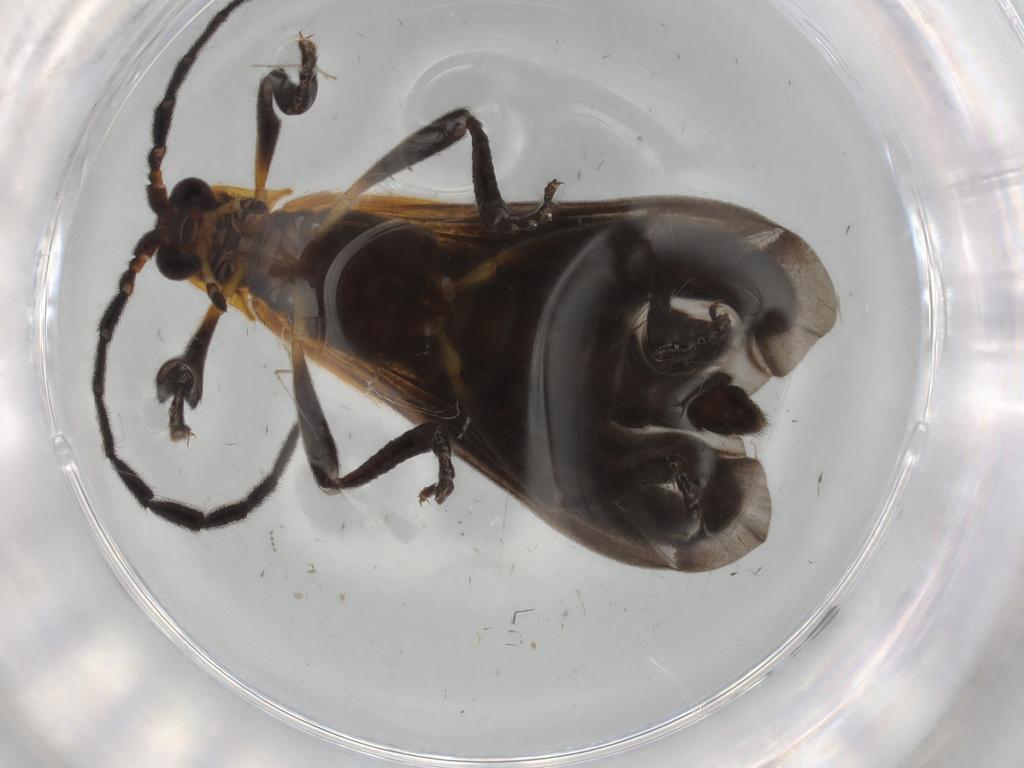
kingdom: Animalia
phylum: Arthropoda
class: Insecta
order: Coleoptera
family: Lycidae
